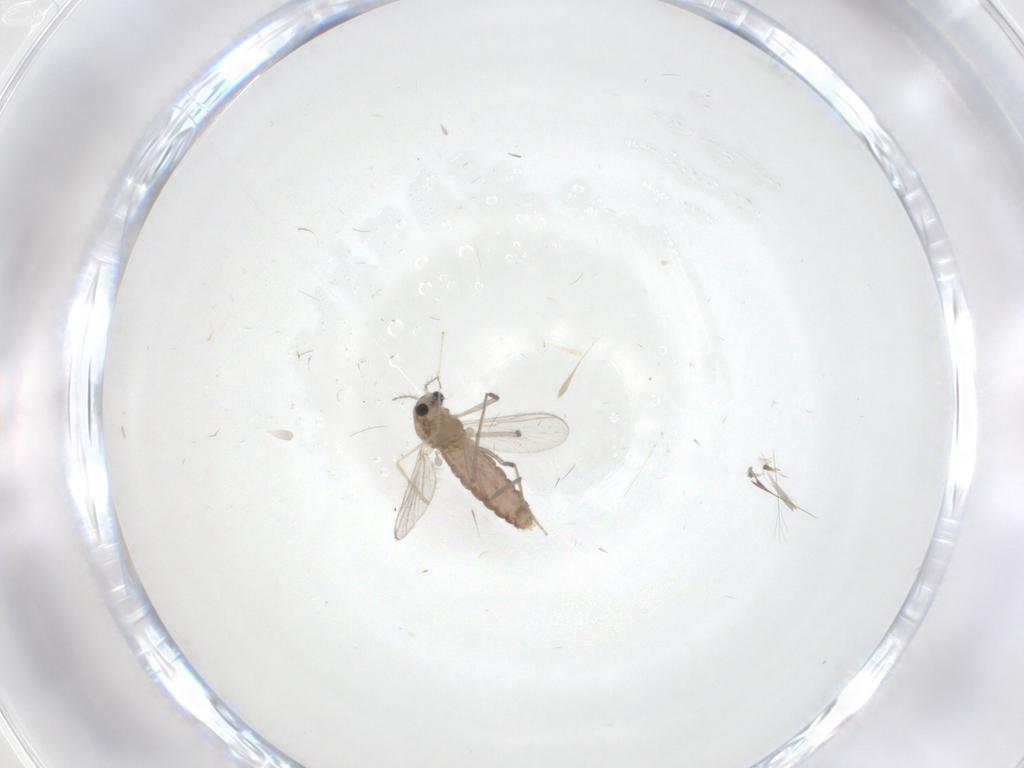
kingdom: Animalia
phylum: Arthropoda
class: Insecta
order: Diptera
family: Chironomidae
